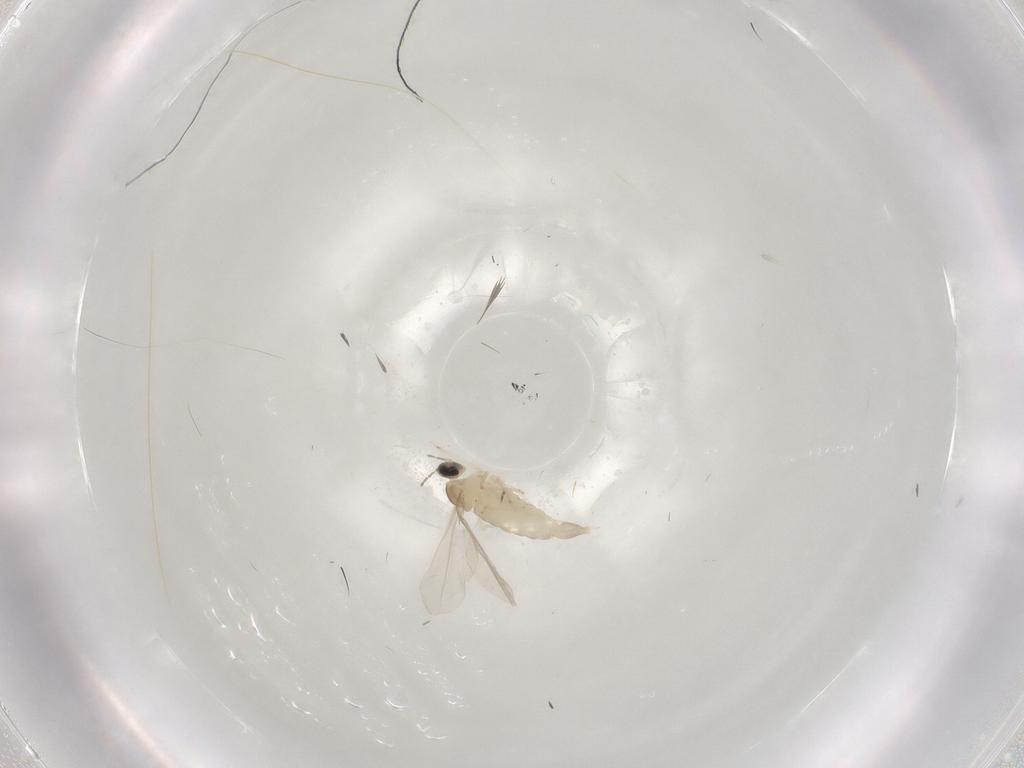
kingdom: Animalia
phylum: Arthropoda
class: Insecta
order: Diptera
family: Cecidomyiidae
